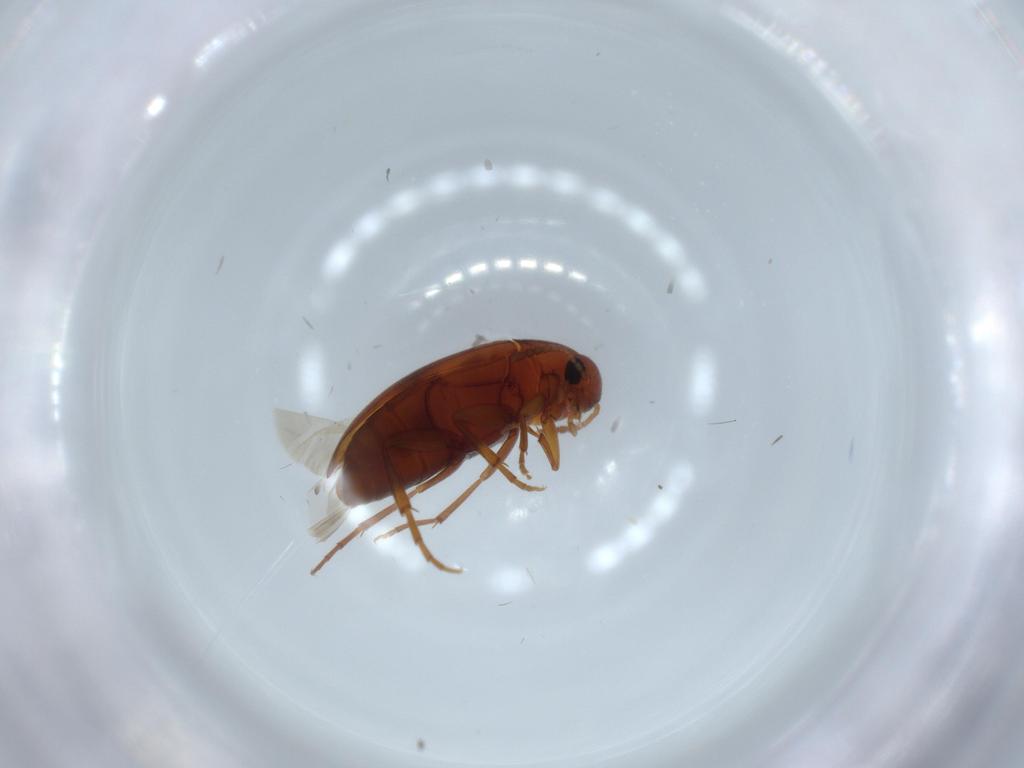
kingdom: Animalia
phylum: Arthropoda
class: Insecta
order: Coleoptera
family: Scraptiidae
